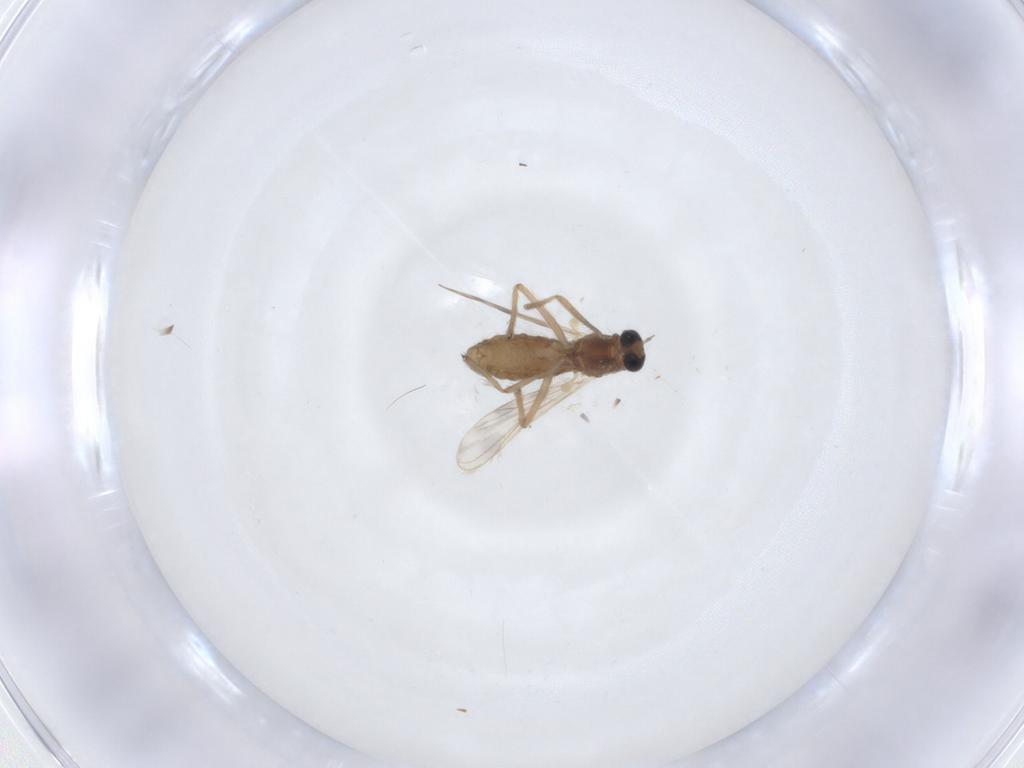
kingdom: Animalia
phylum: Arthropoda
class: Insecta
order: Diptera
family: Chironomidae
